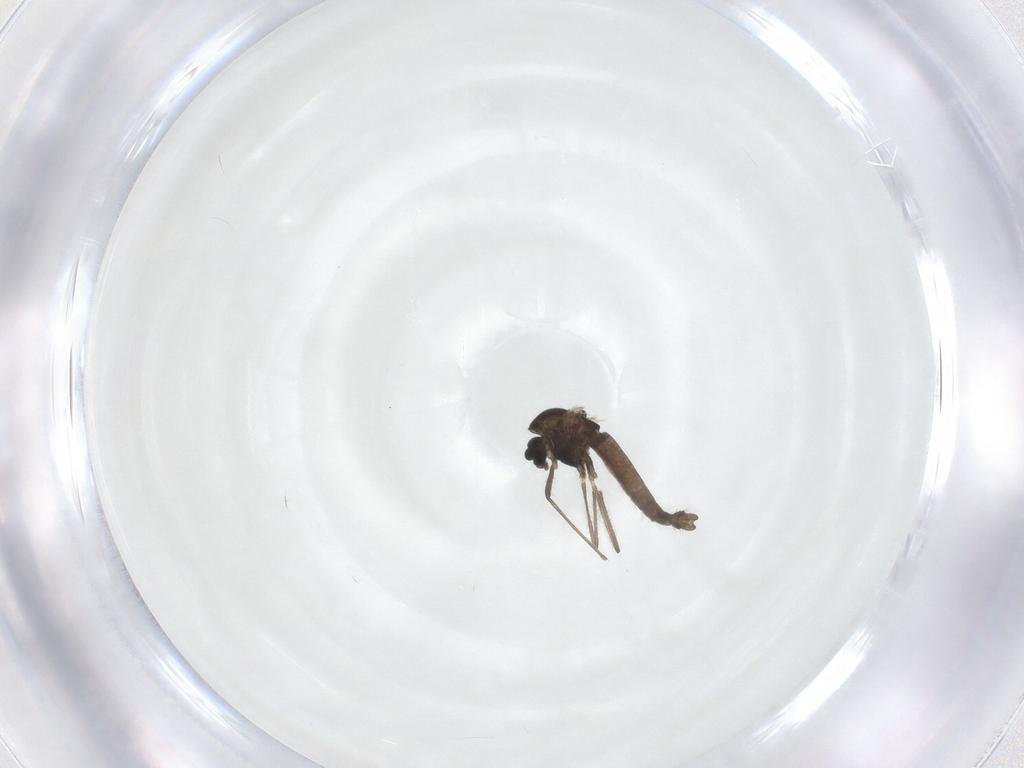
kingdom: Animalia
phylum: Arthropoda
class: Insecta
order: Diptera
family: Chironomidae
